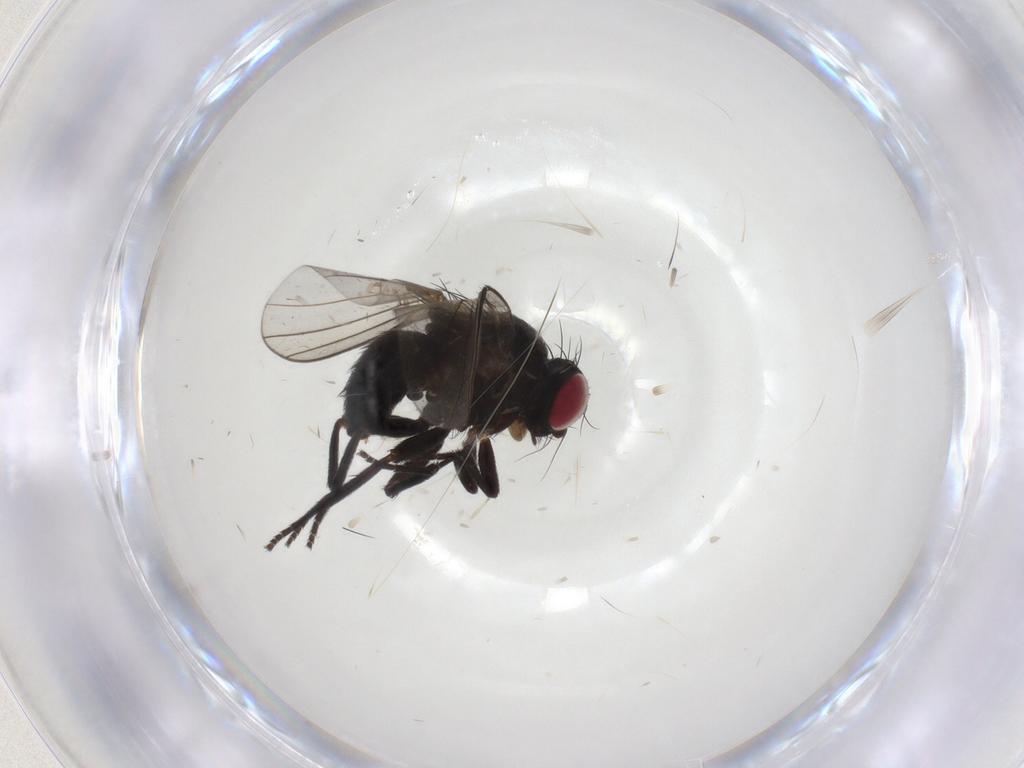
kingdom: Animalia
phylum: Arthropoda
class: Insecta
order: Diptera
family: Agromyzidae
